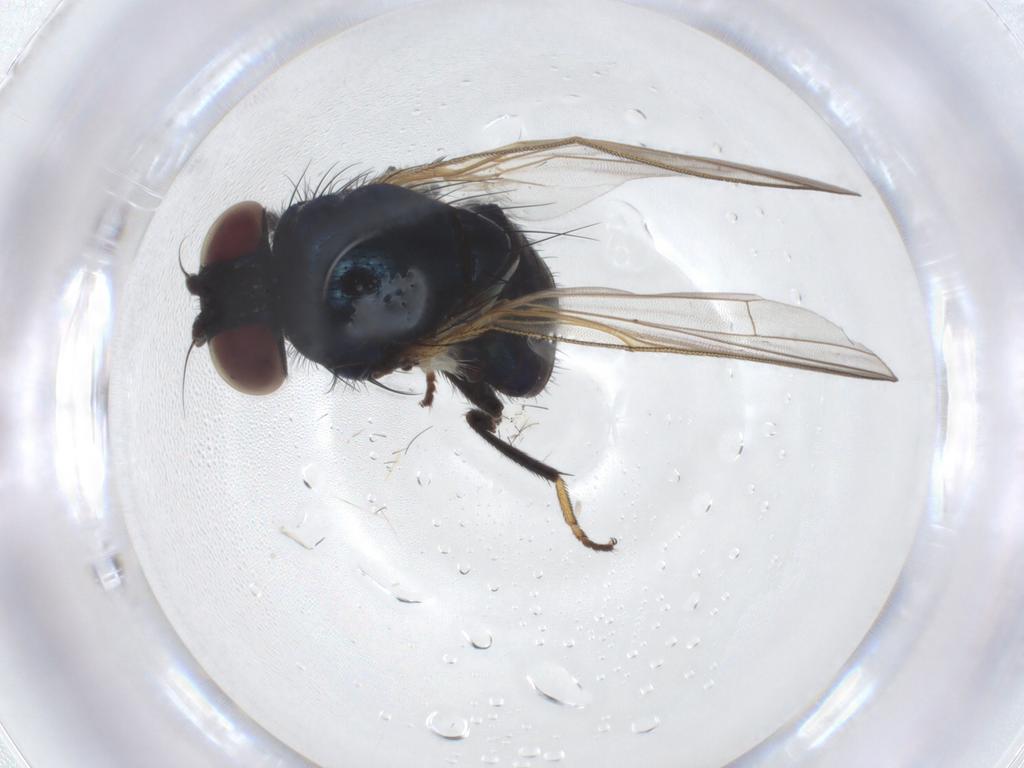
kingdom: Animalia
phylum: Arthropoda
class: Insecta
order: Diptera
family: Lonchaeidae
